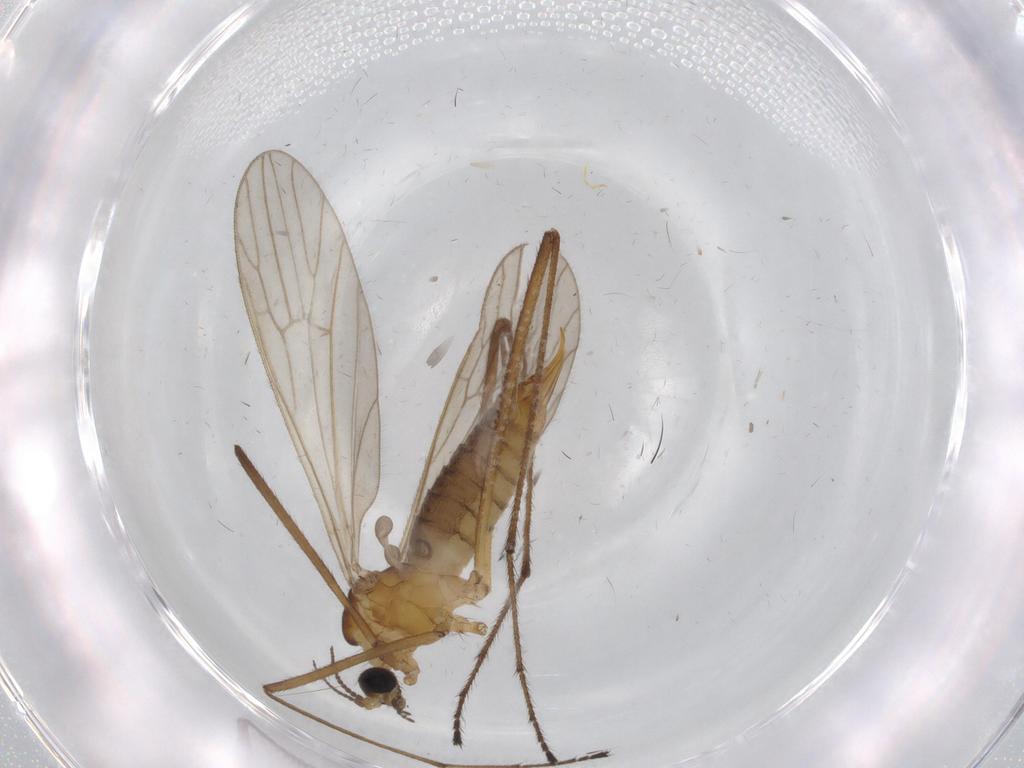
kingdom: Animalia
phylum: Arthropoda
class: Insecta
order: Diptera
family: Limoniidae
